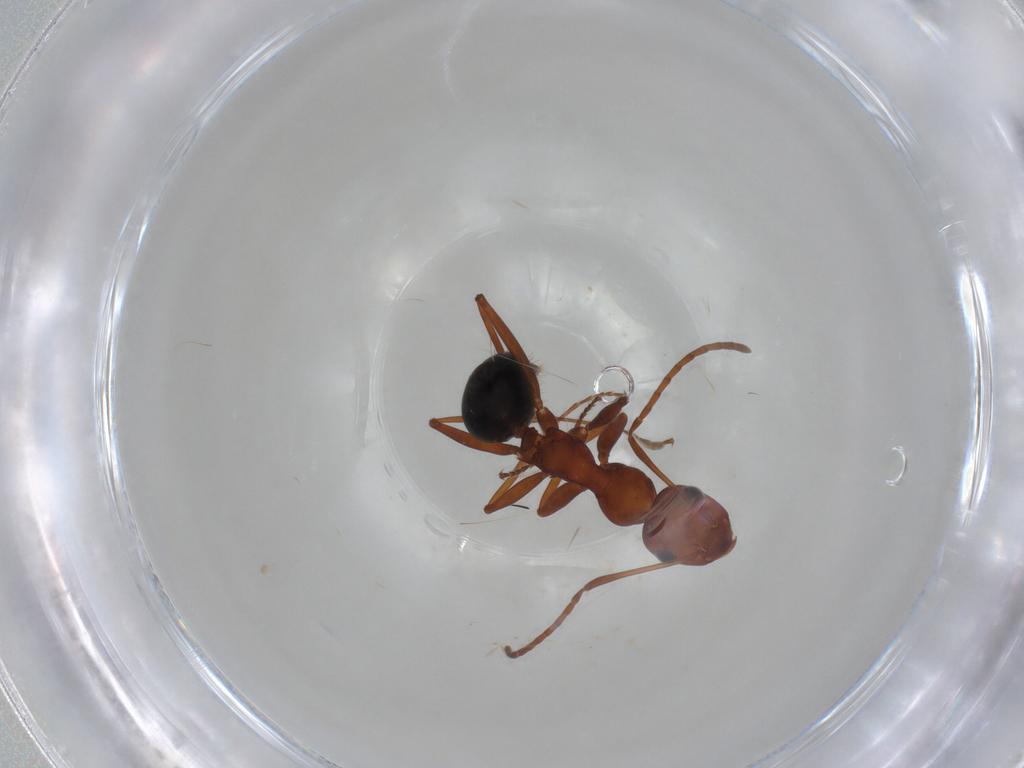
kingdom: Animalia
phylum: Arthropoda
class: Insecta
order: Hymenoptera
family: Formicidae
